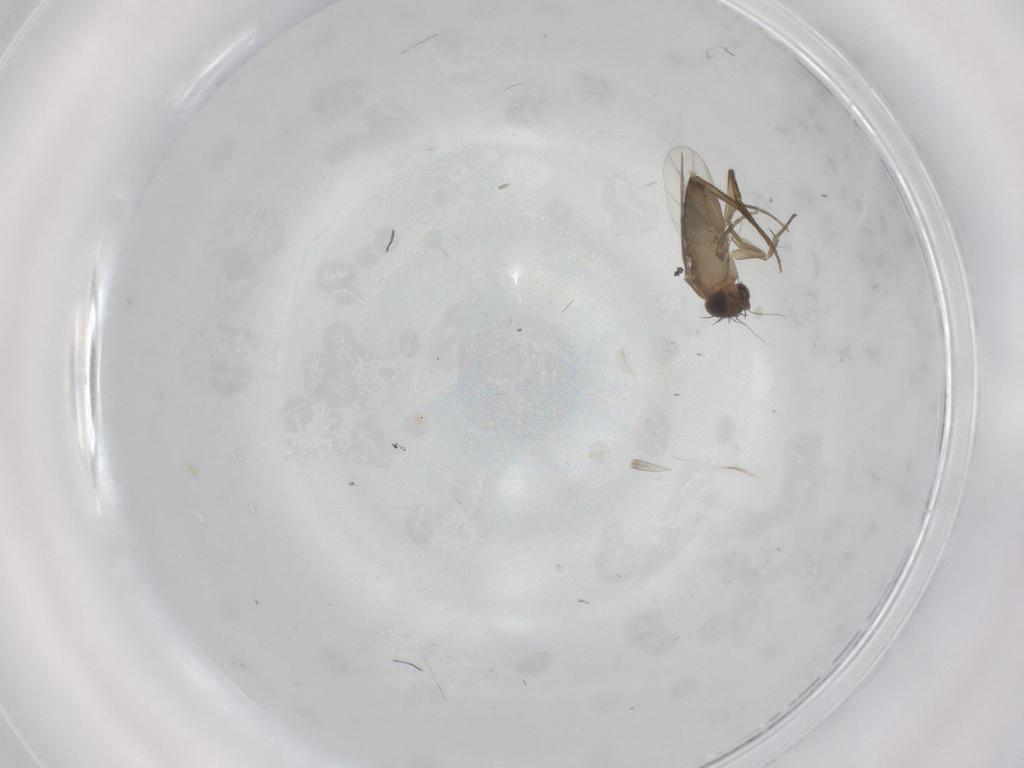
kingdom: Animalia
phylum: Arthropoda
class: Insecta
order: Diptera
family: Phoridae
